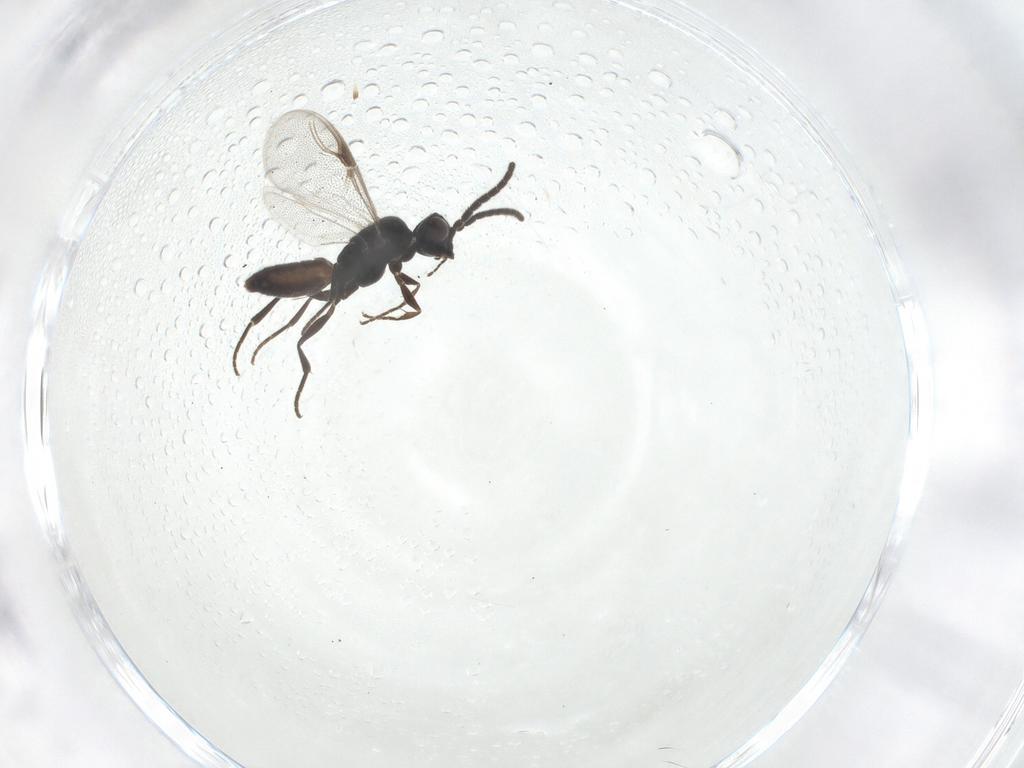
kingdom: Animalia
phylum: Arthropoda
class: Insecta
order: Hymenoptera
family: Dryinidae
